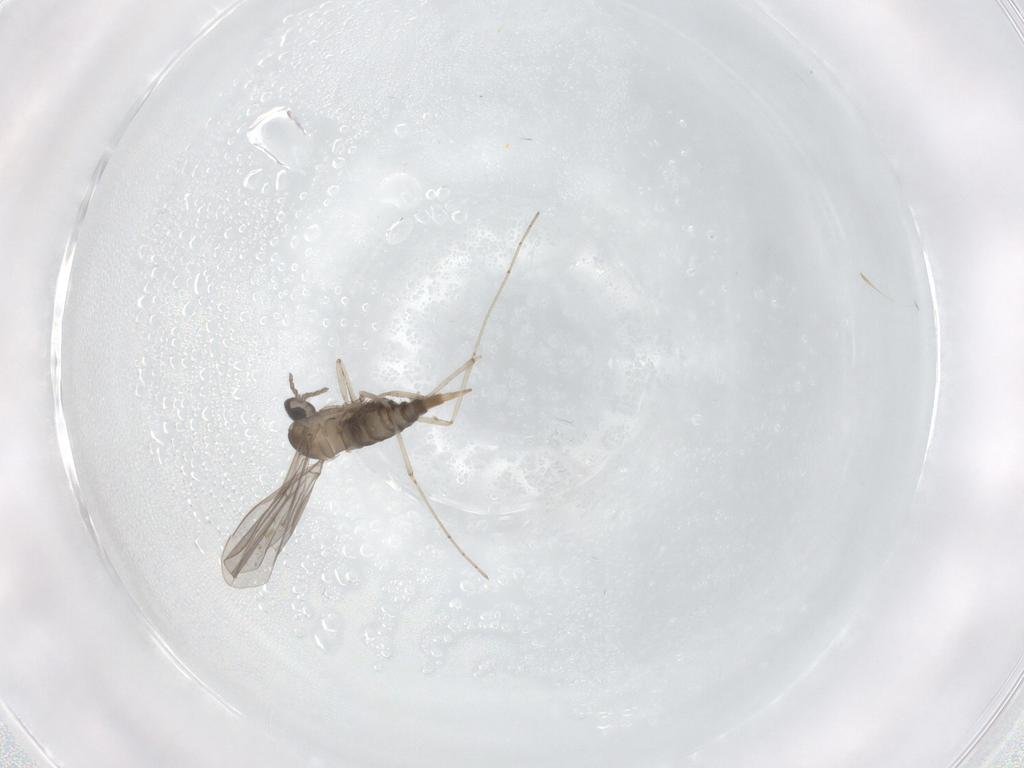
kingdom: Animalia
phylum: Arthropoda
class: Insecta
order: Diptera
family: Cecidomyiidae
